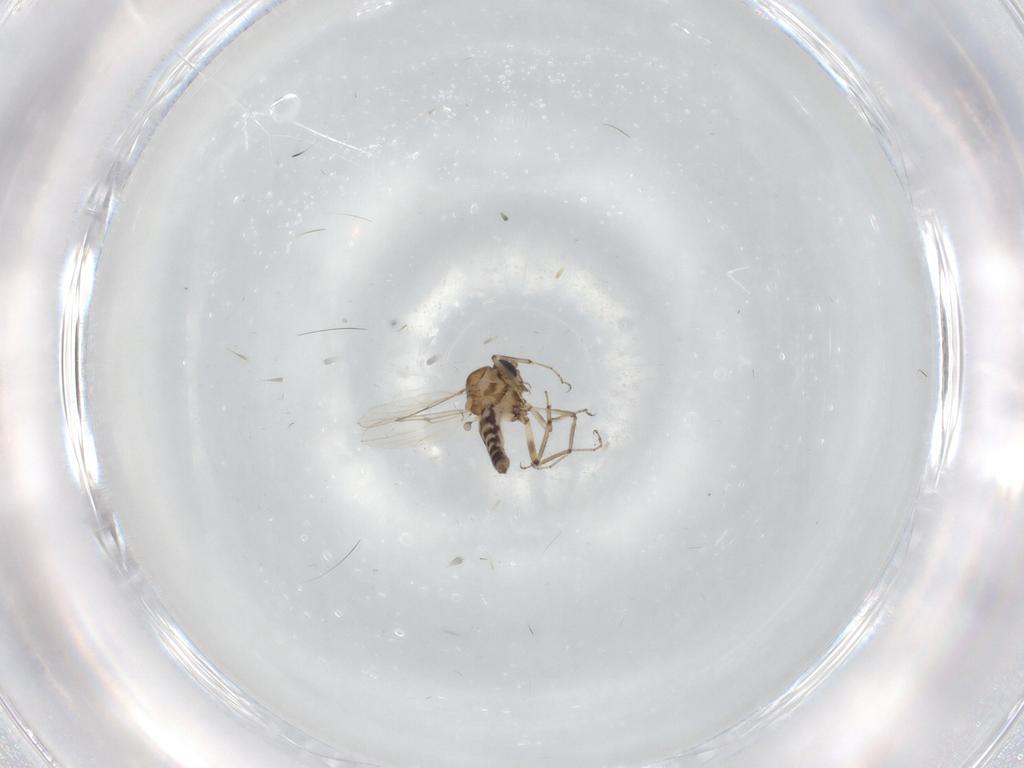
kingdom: Animalia
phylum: Arthropoda
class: Insecta
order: Diptera
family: Ceratopogonidae
